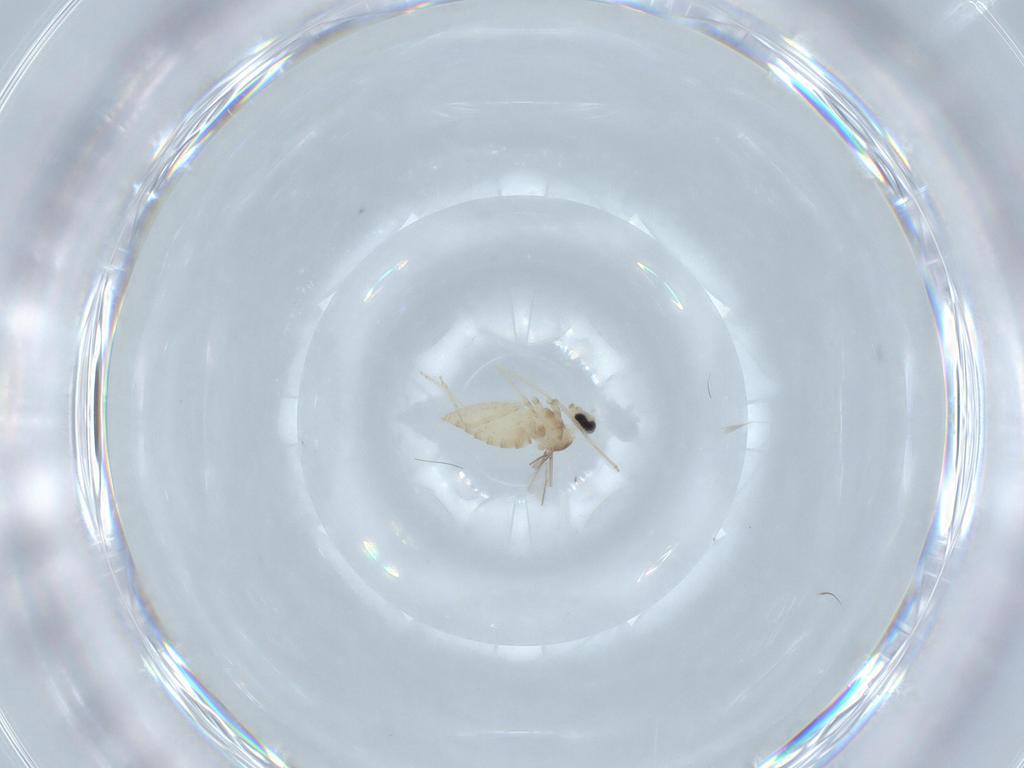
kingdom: Animalia
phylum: Arthropoda
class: Insecta
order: Diptera
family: Cecidomyiidae
